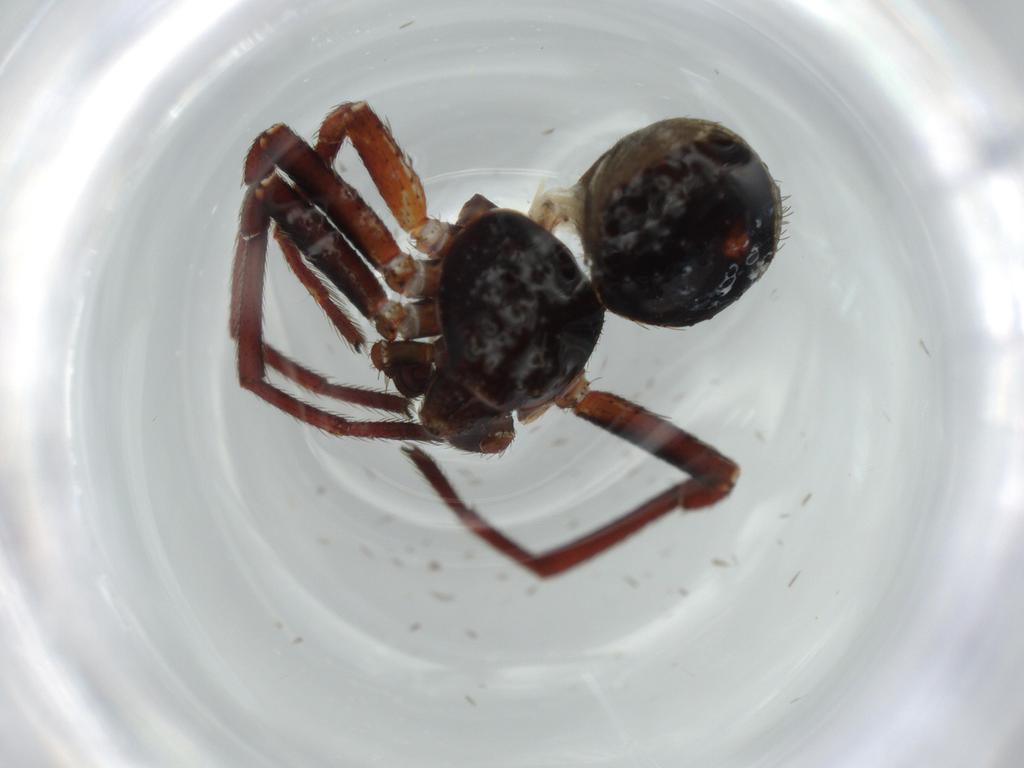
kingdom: Animalia
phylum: Arthropoda
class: Arachnida
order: Araneae
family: Thomisidae
